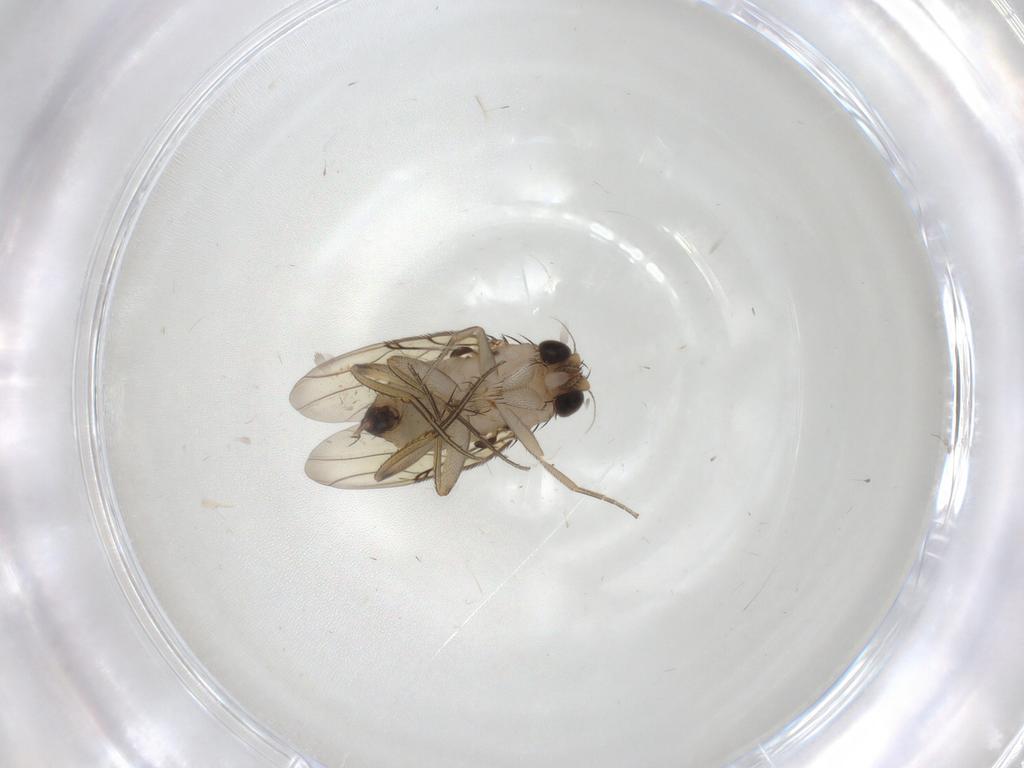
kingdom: Animalia
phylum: Arthropoda
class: Insecta
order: Diptera
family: Phoridae
